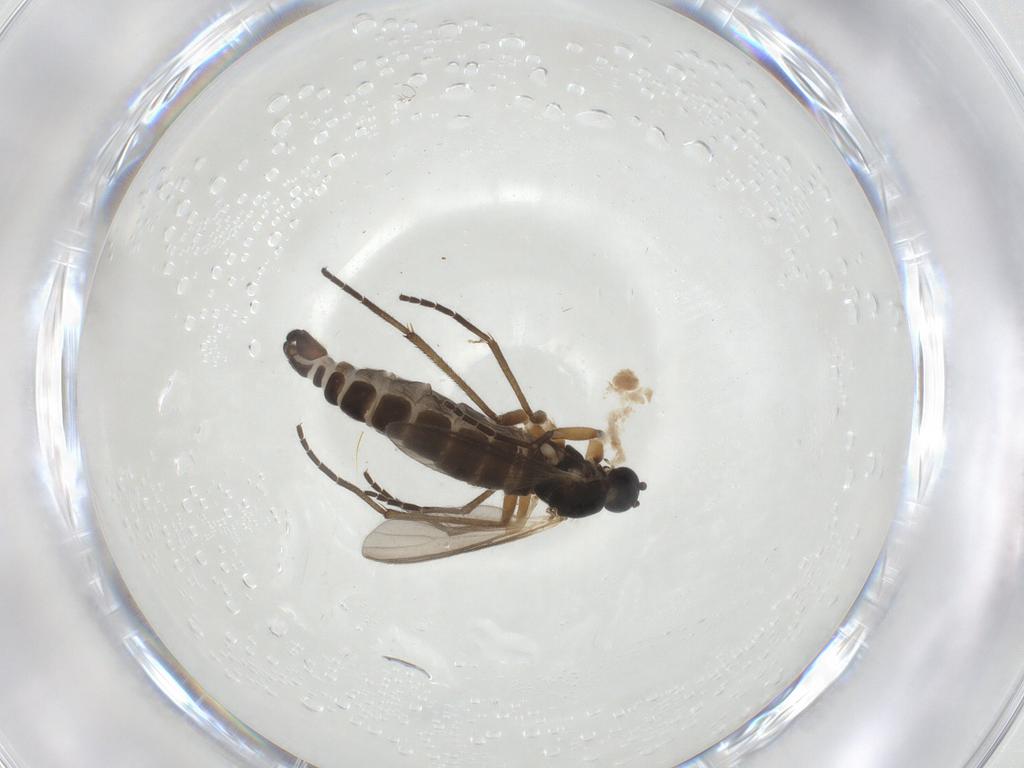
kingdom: Animalia
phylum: Arthropoda
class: Insecta
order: Diptera
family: Sciaridae
